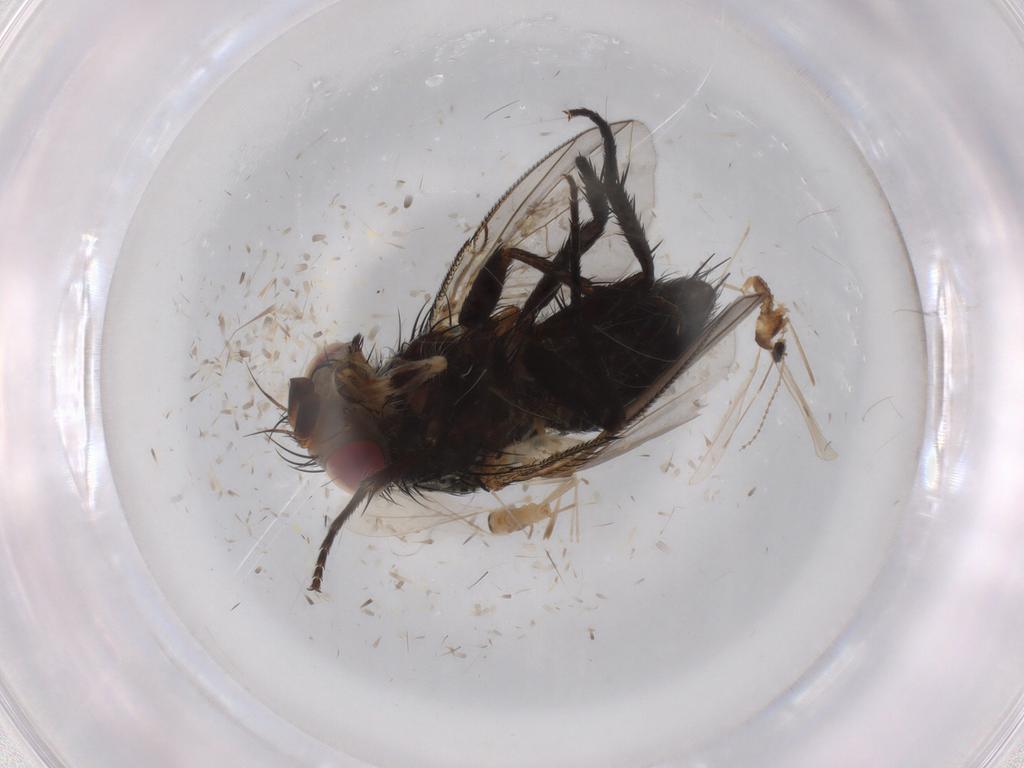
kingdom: Animalia
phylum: Arthropoda
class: Insecta
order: Diptera
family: Tachinidae
